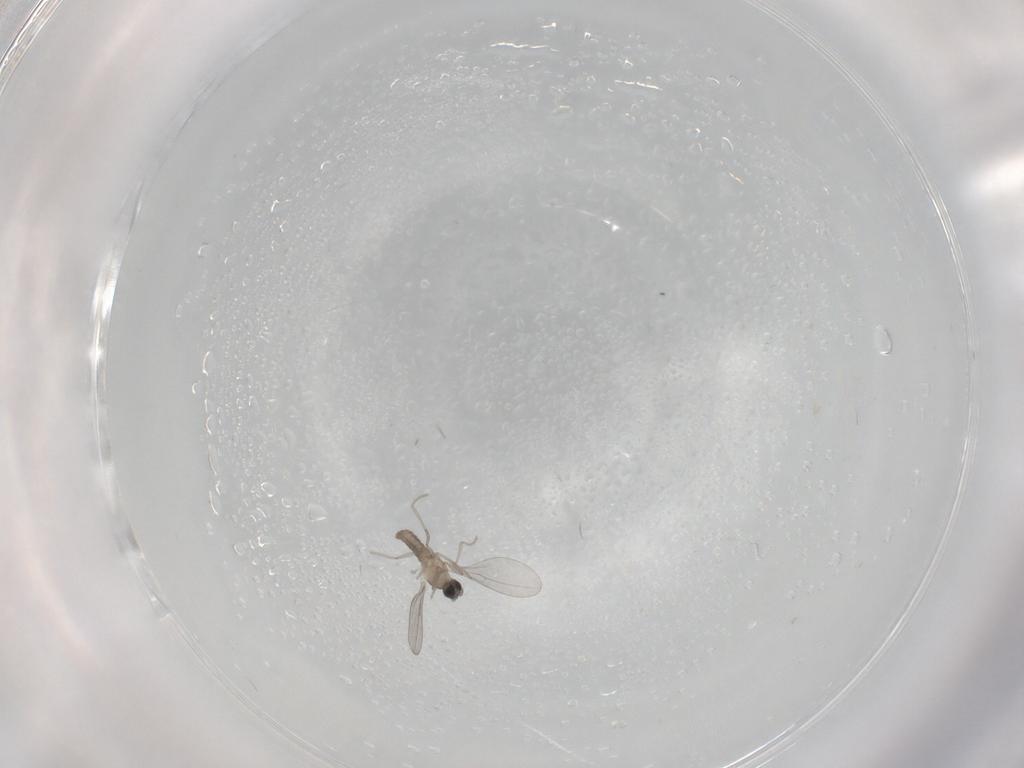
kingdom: Animalia
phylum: Arthropoda
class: Insecta
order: Diptera
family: Cecidomyiidae
